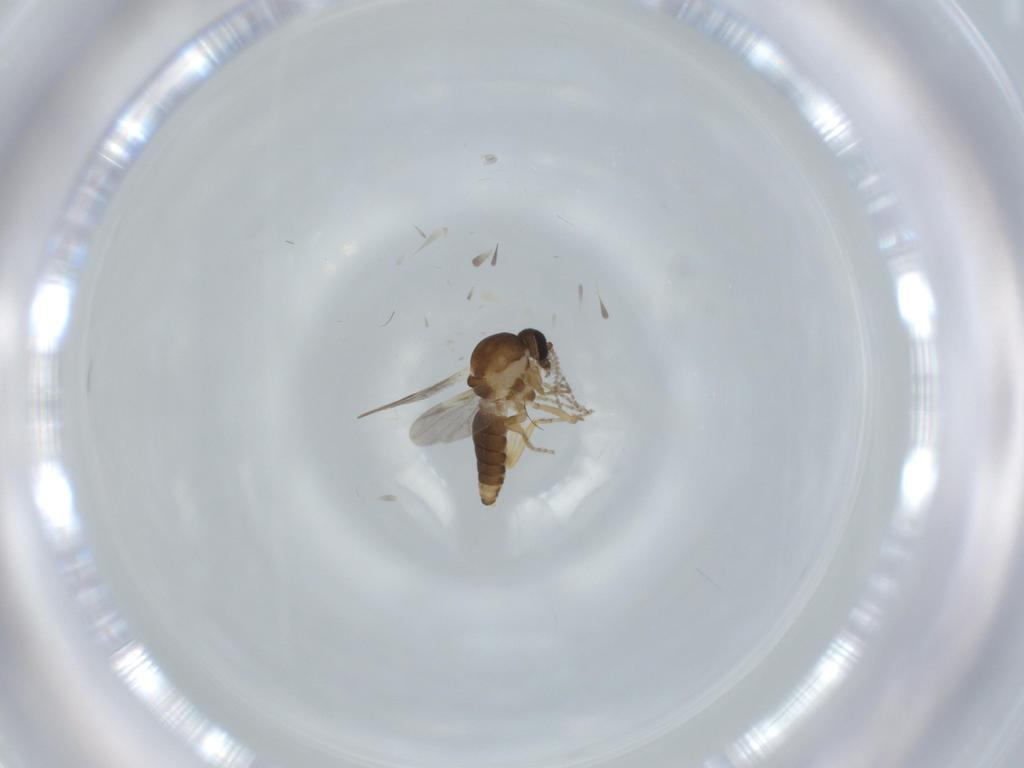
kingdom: Animalia
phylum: Arthropoda
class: Insecta
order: Diptera
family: Ceratopogonidae
